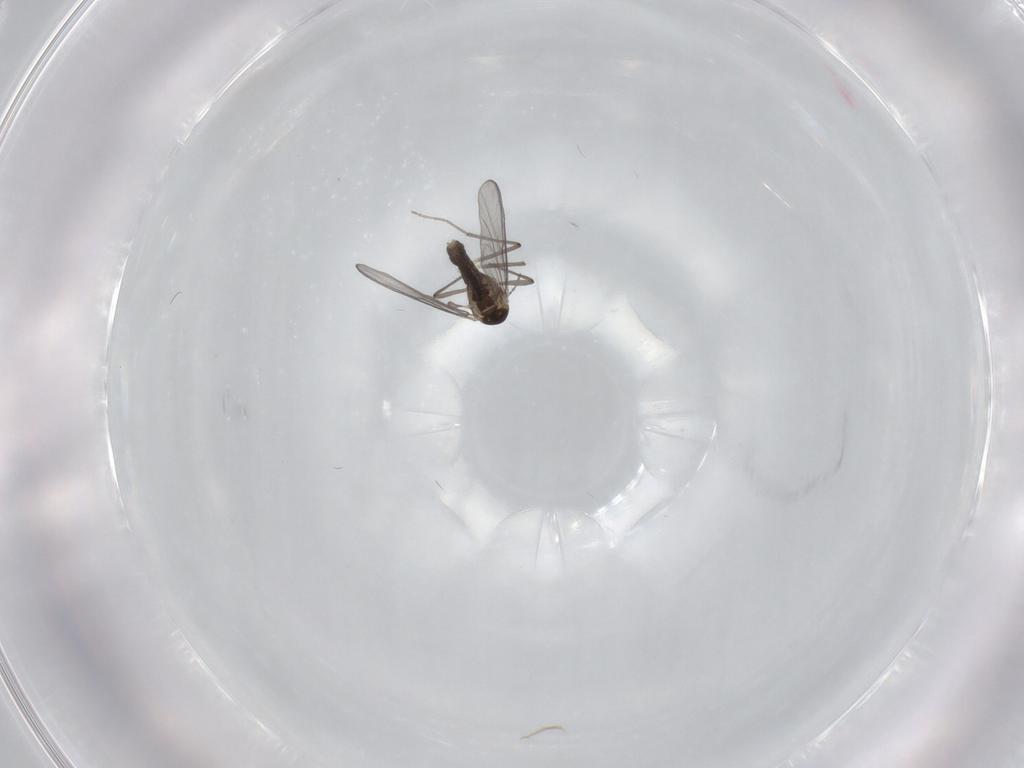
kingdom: Animalia
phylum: Arthropoda
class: Insecta
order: Diptera
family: Chironomidae
